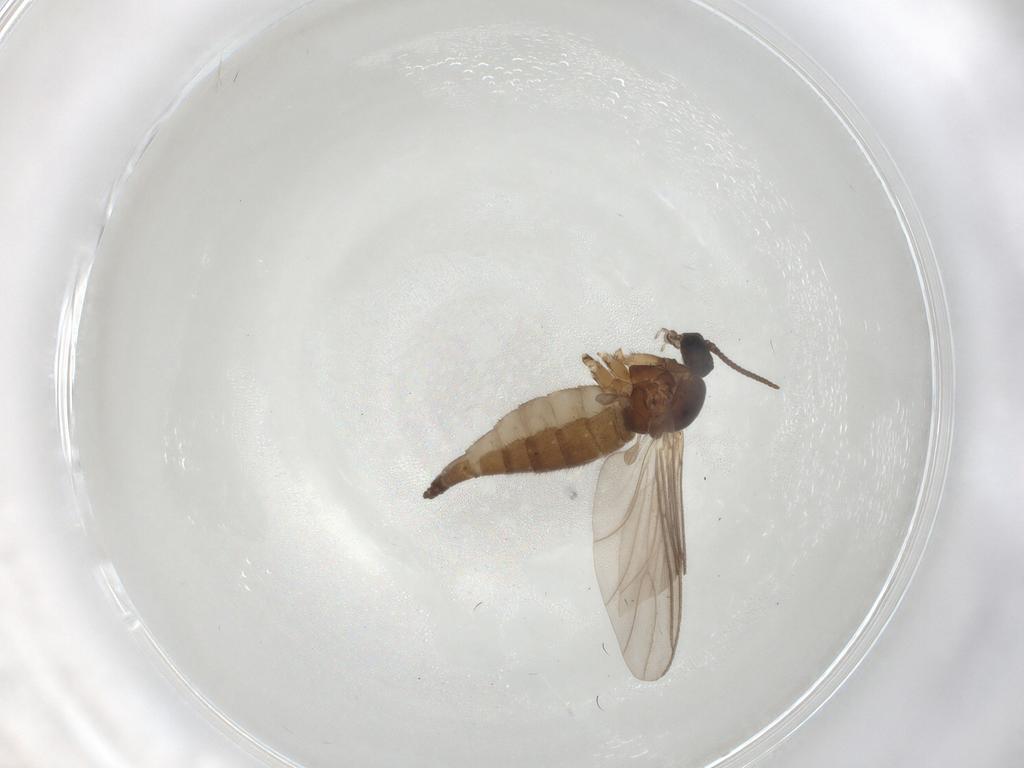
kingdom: Animalia
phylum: Arthropoda
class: Insecta
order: Diptera
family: Sciaridae
